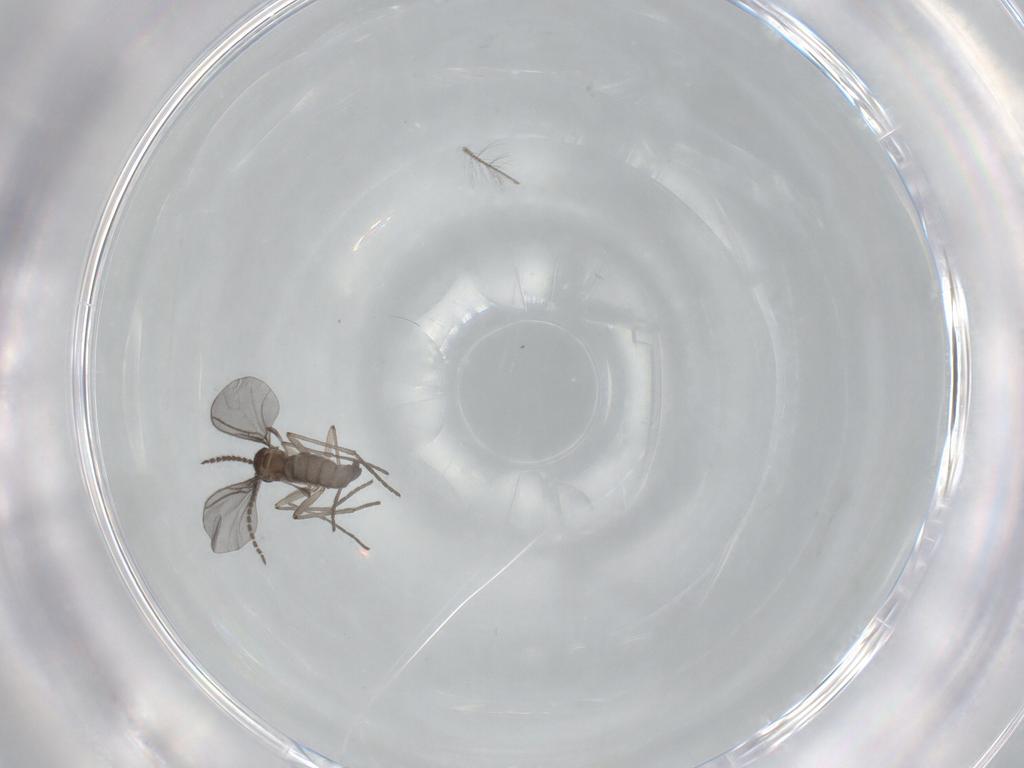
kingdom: Animalia
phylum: Arthropoda
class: Insecta
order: Diptera
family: Chironomidae
